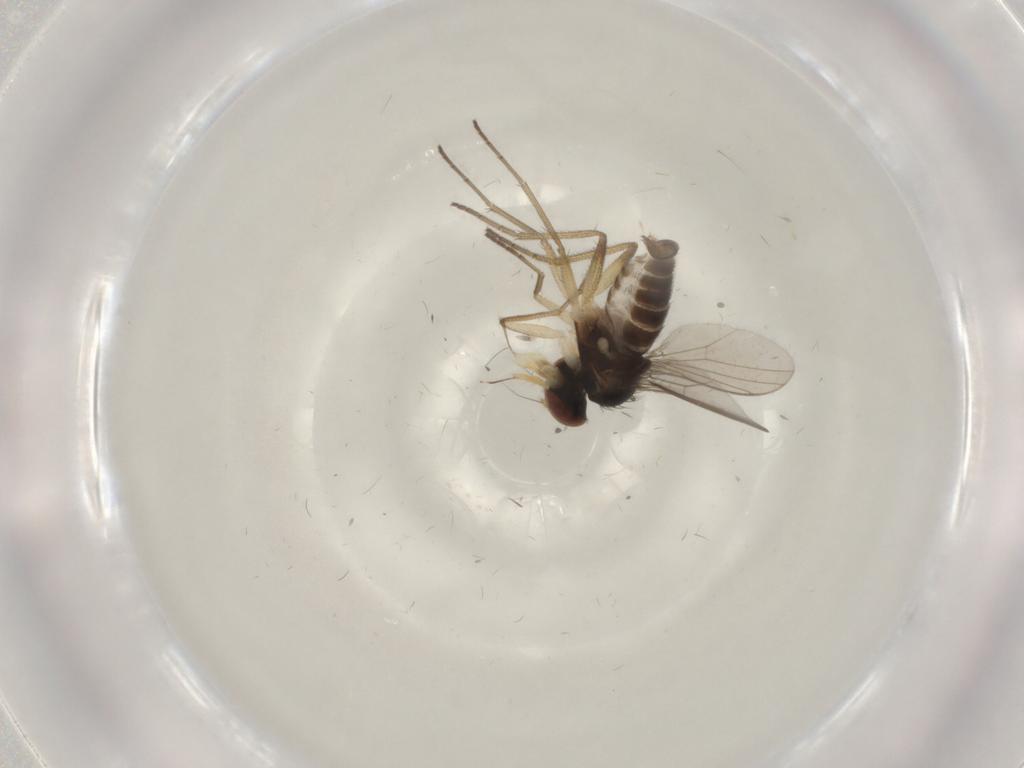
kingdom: Animalia
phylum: Arthropoda
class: Insecta
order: Diptera
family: Dolichopodidae
